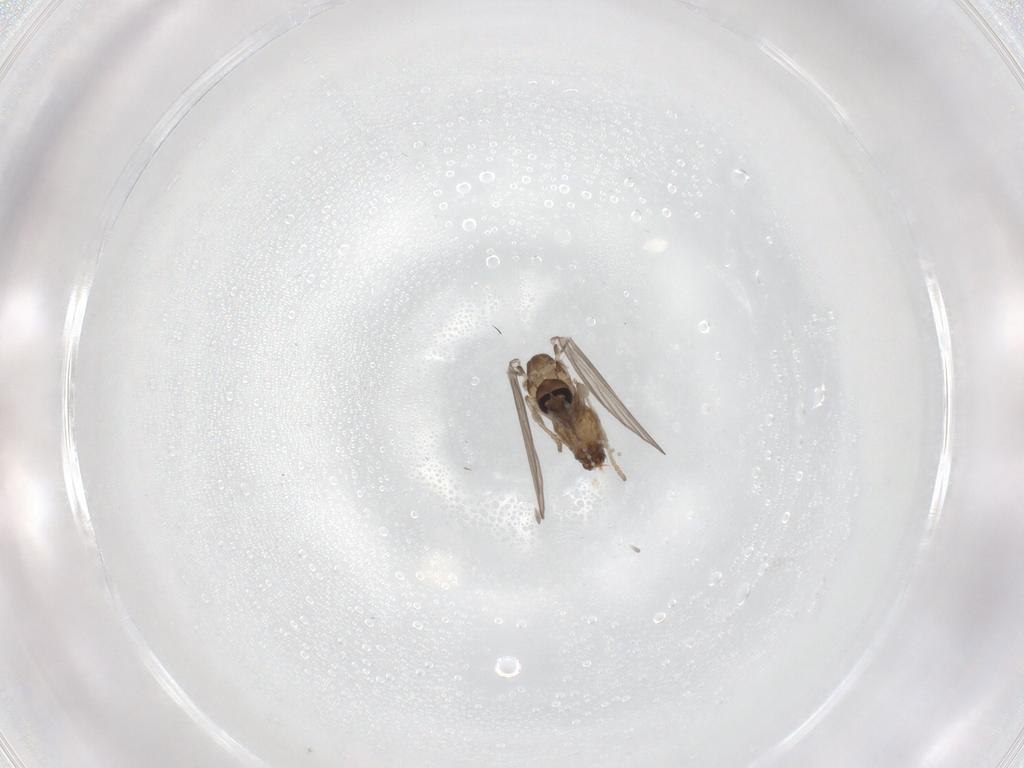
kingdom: Animalia
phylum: Arthropoda
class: Insecta
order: Diptera
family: Psychodidae
